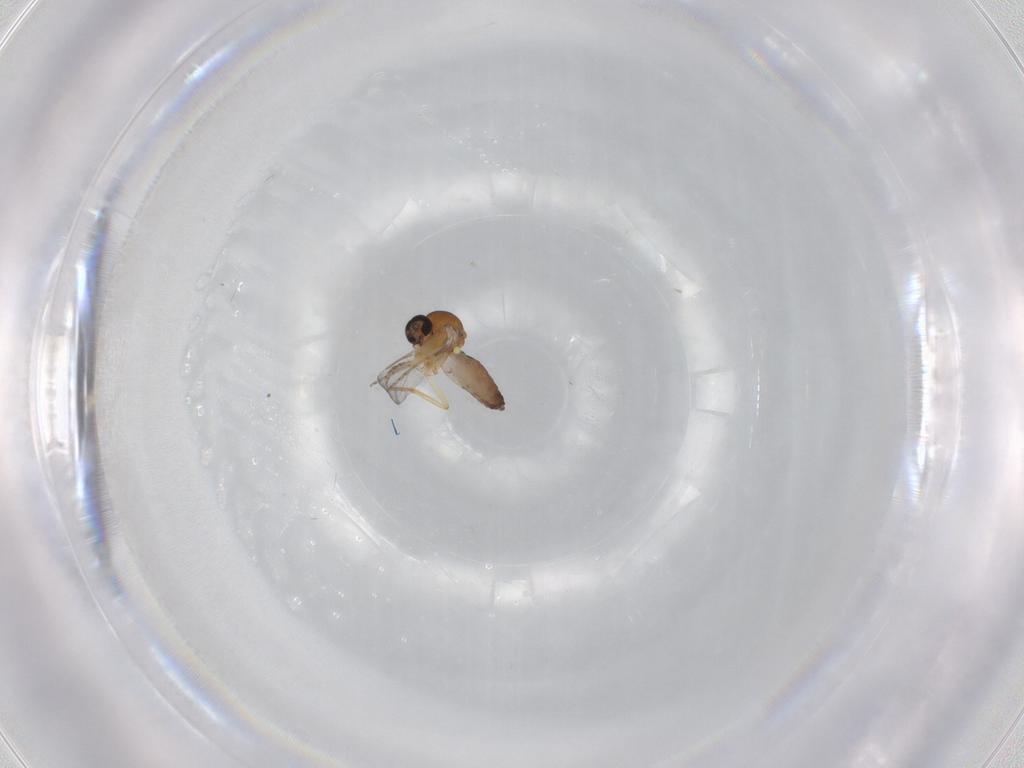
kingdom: Animalia
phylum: Arthropoda
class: Insecta
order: Diptera
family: Ceratopogonidae
